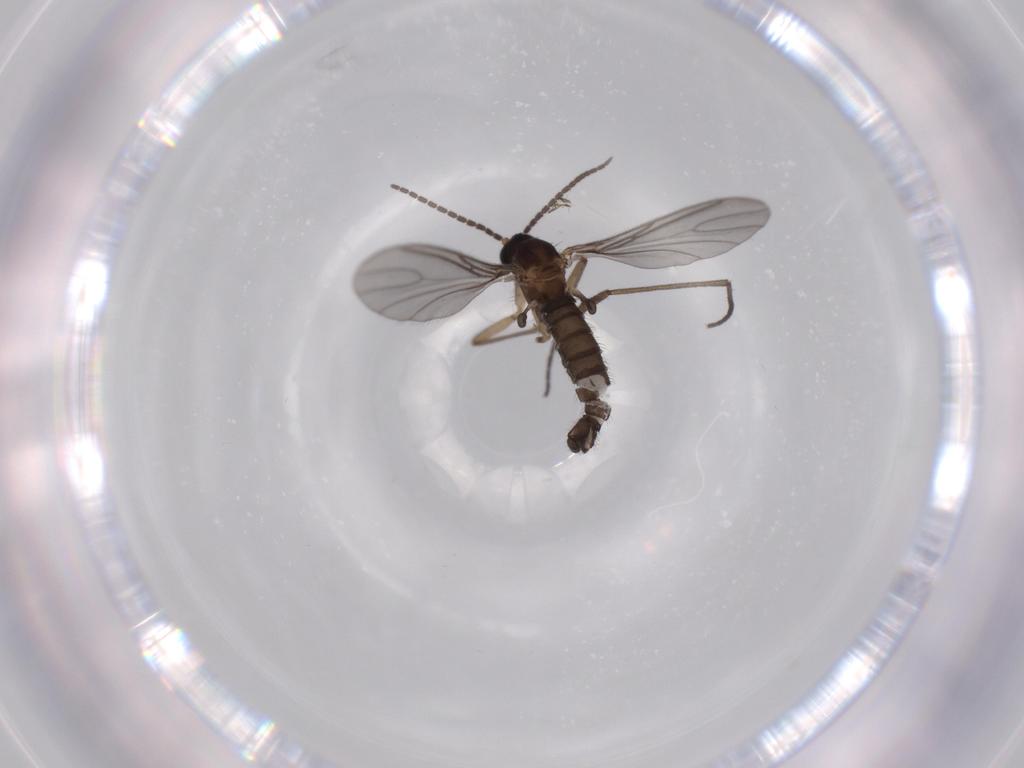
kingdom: Animalia
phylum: Arthropoda
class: Insecta
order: Diptera
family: Sciaridae
